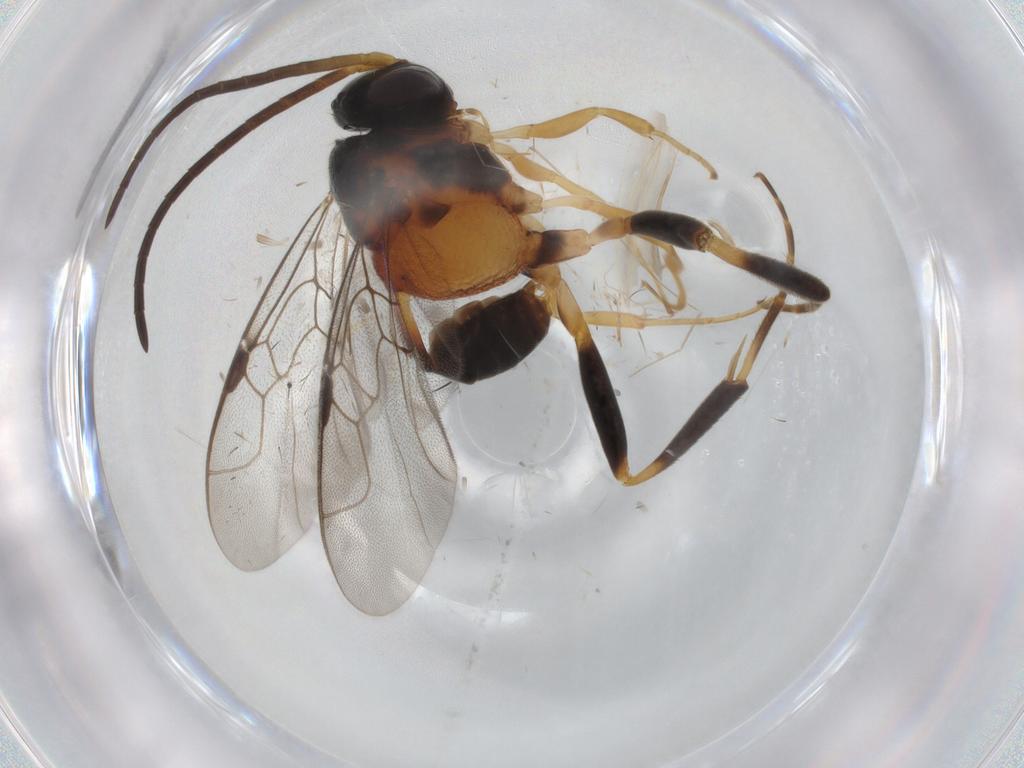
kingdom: Animalia
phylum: Arthropoda
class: Insecta
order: Hymenoptera
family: Evaniidae
